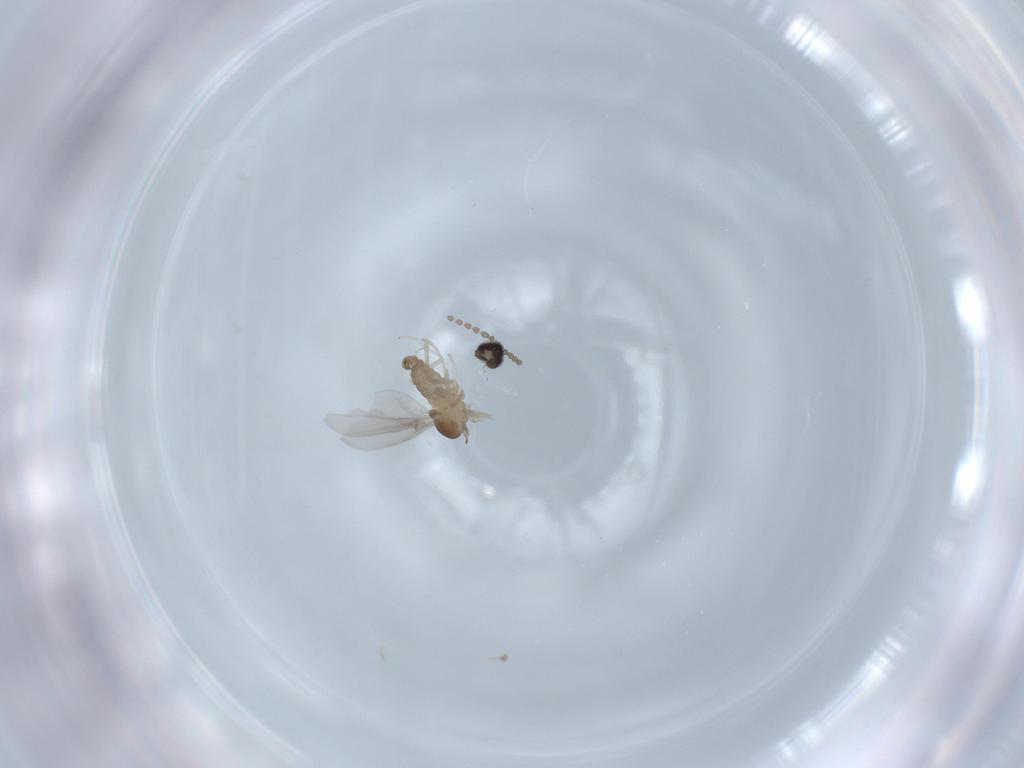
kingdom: Animalia
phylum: Arthropoda
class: Insecta
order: Diptera
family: Cecidomyiidae
